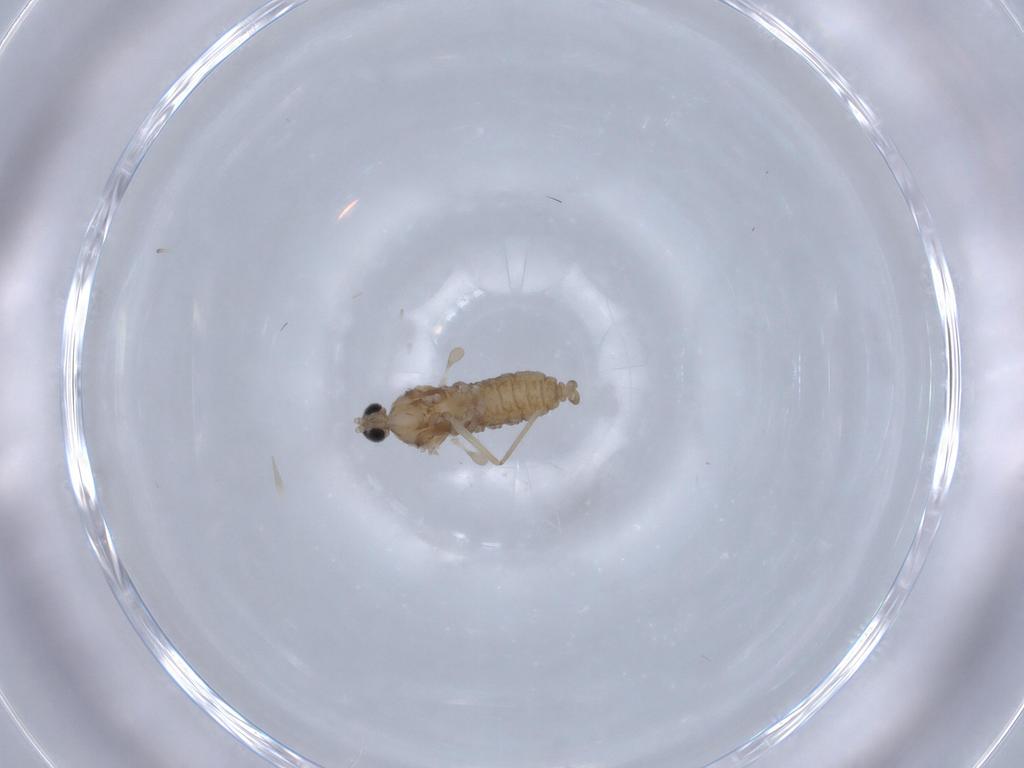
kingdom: Animalia
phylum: Arthropoda
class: Insecta
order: Diptera
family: Cecidomyiidae
